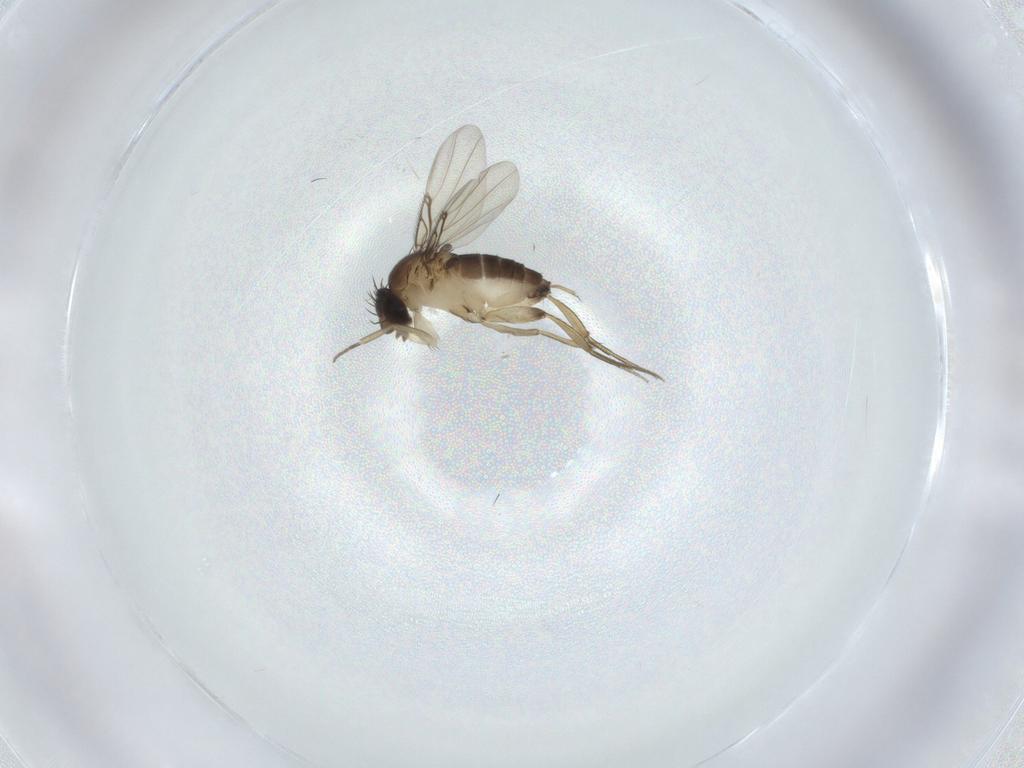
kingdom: Animalia
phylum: Arthropoda
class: Insecta
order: Diptera
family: Phoridae
